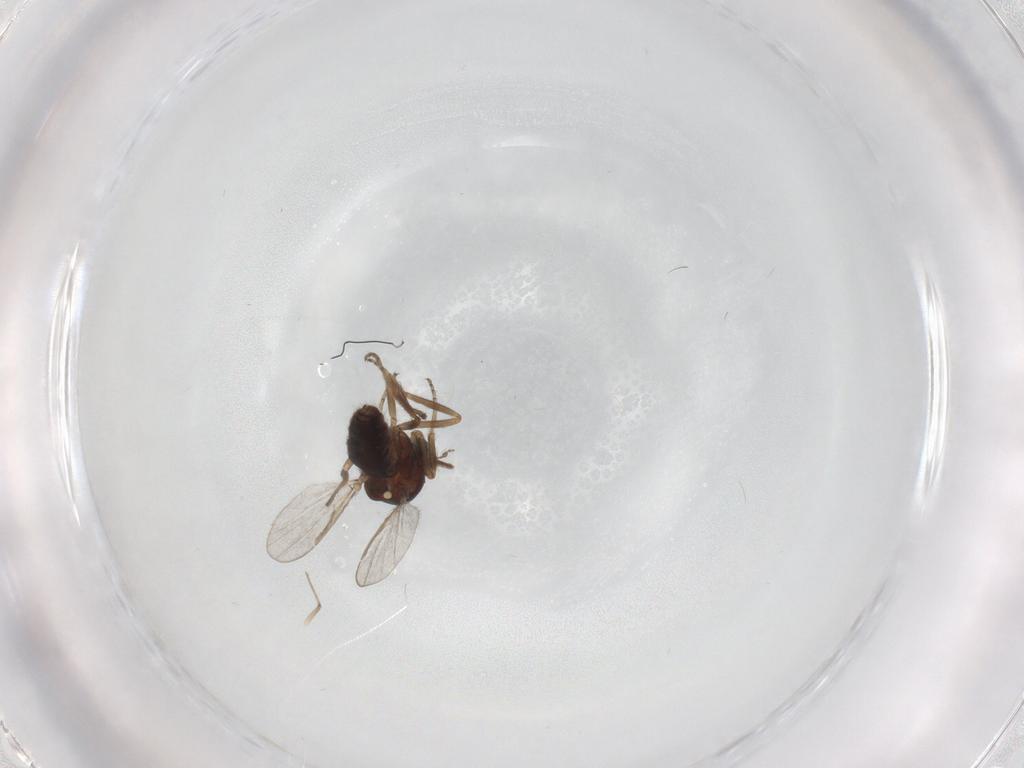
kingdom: Animalia
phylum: Arthropoda
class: Insecta
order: Diptera
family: Ceratopogonidae
